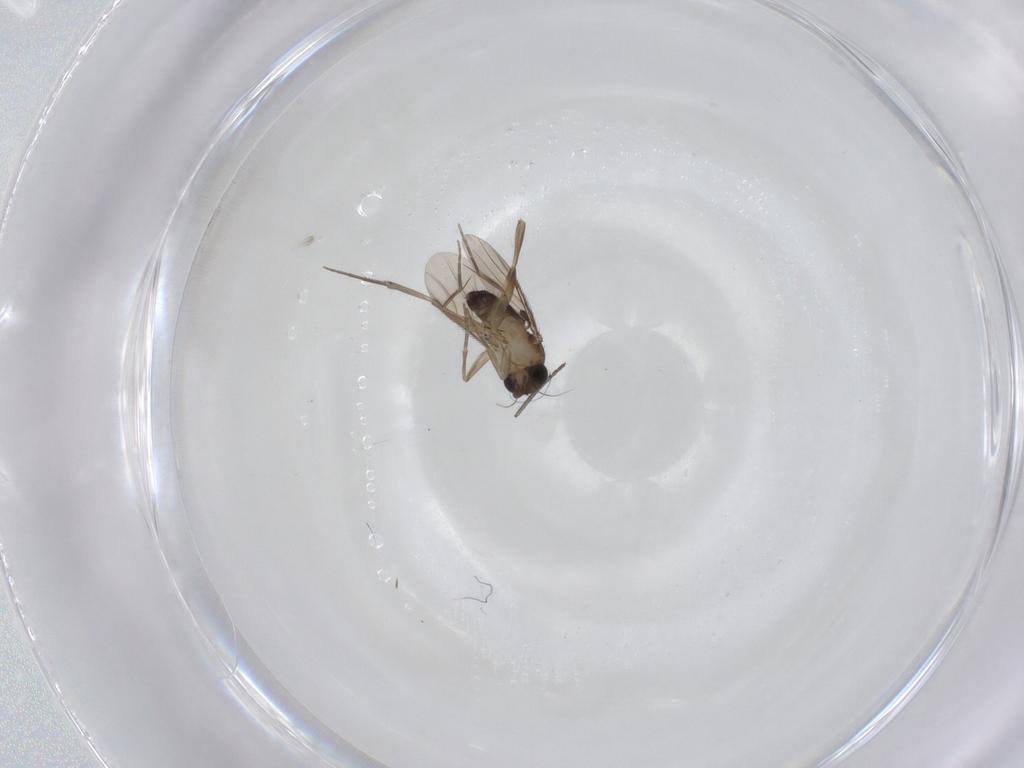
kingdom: Animalia
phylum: Arthropoda
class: Insecta
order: Diptera
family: Phoridae
